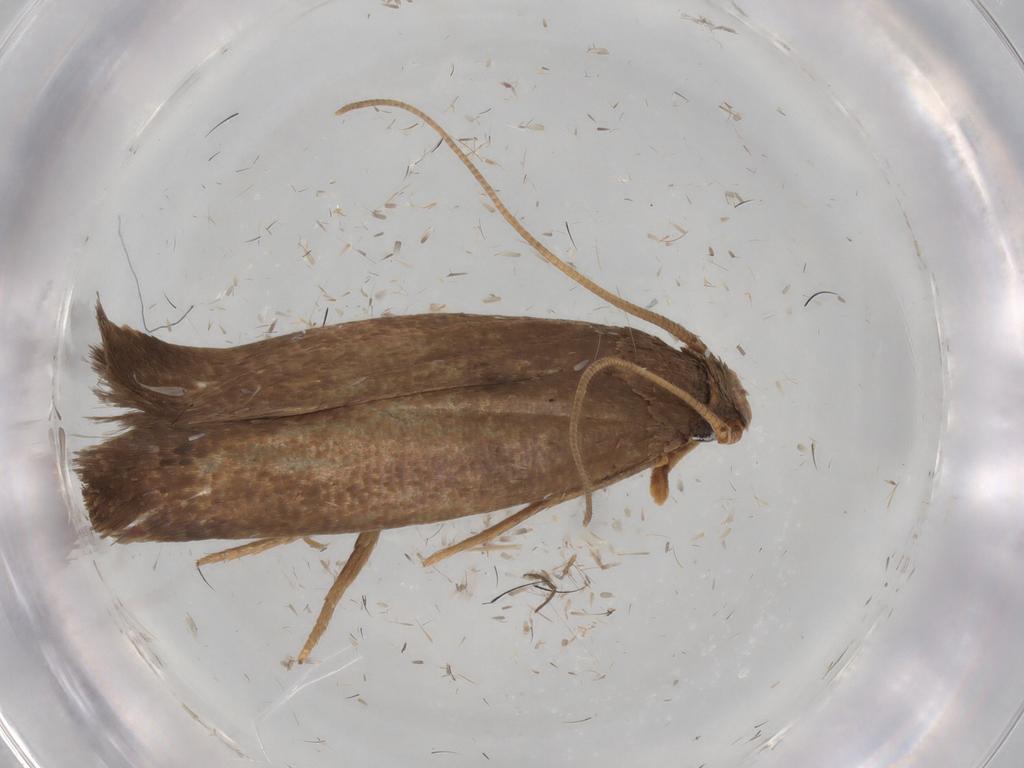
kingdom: Animalia
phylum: Arthropoda
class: Insecta
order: Lepidoptera
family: Tineidae
